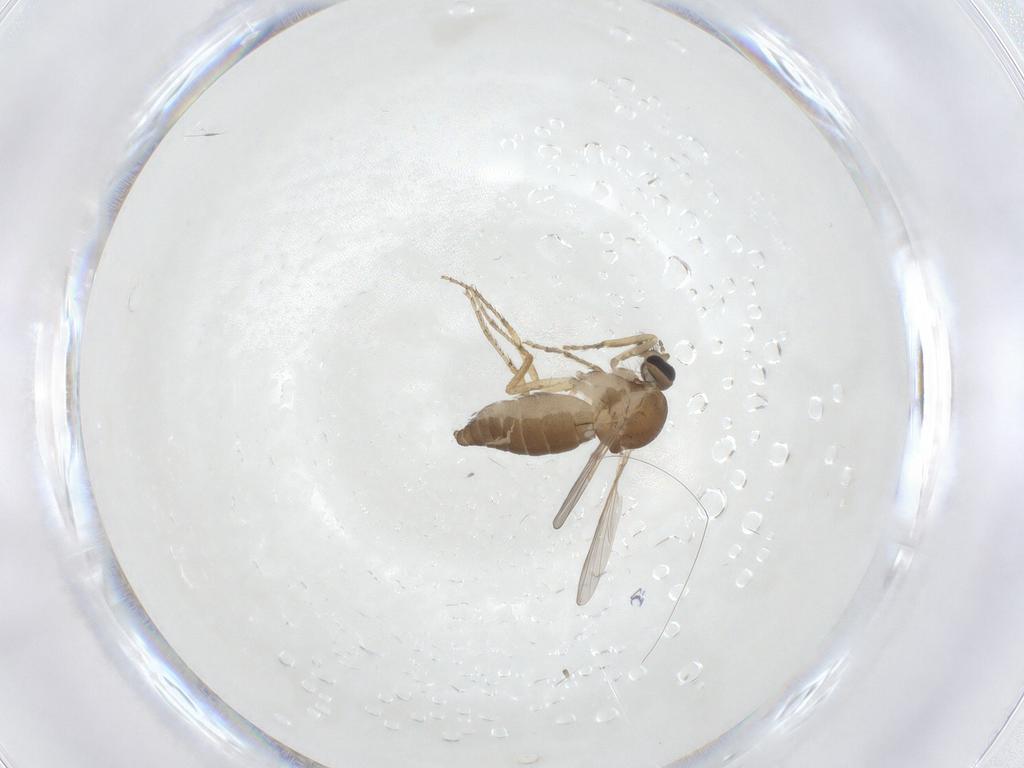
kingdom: Animalia
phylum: Arthropoda
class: Insecta
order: Diptera
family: Ceratopogonidae
